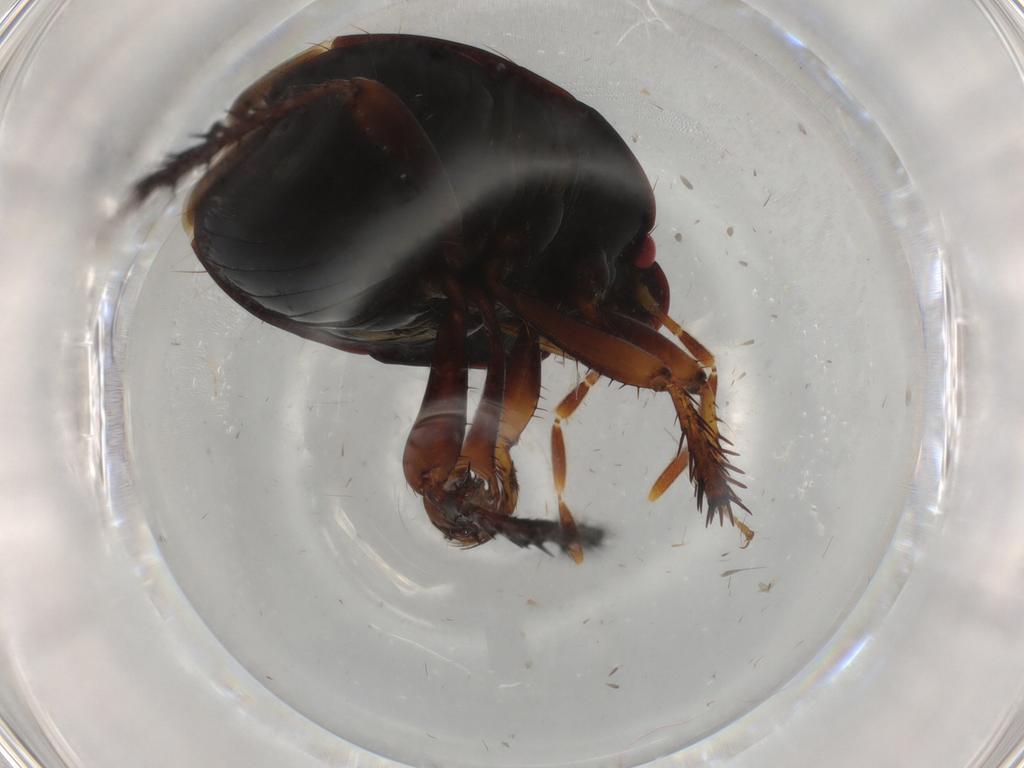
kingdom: Animalia
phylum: Arthropoda
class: Insecta
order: Hemiptera
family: Cydnidae
